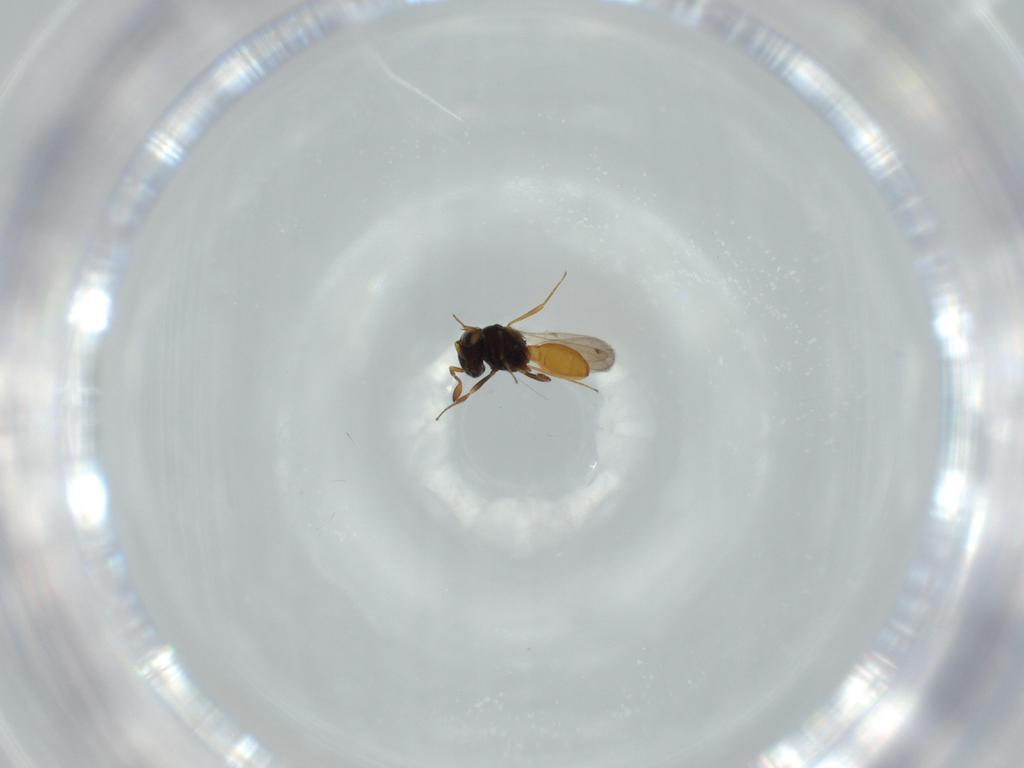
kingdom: Animalia
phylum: Arthropoda
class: Insecta
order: Hymenoptera
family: Scelionidae
